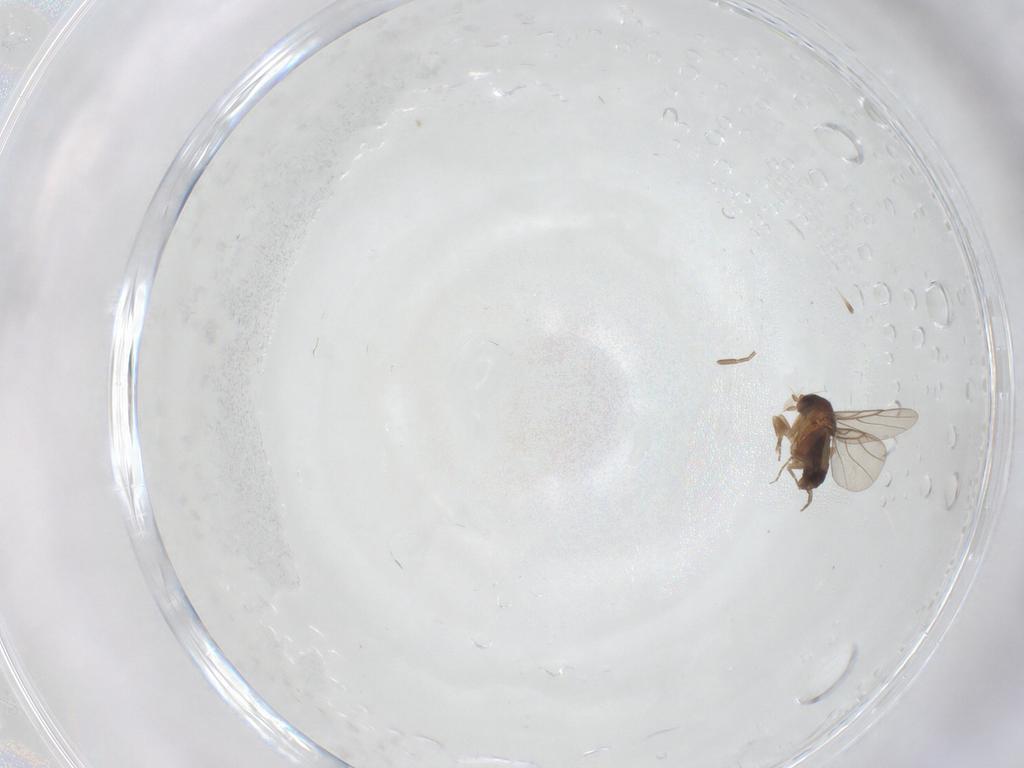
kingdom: Animalia
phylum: Arthropoda
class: Insecta
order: Diptera
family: Phoridae
